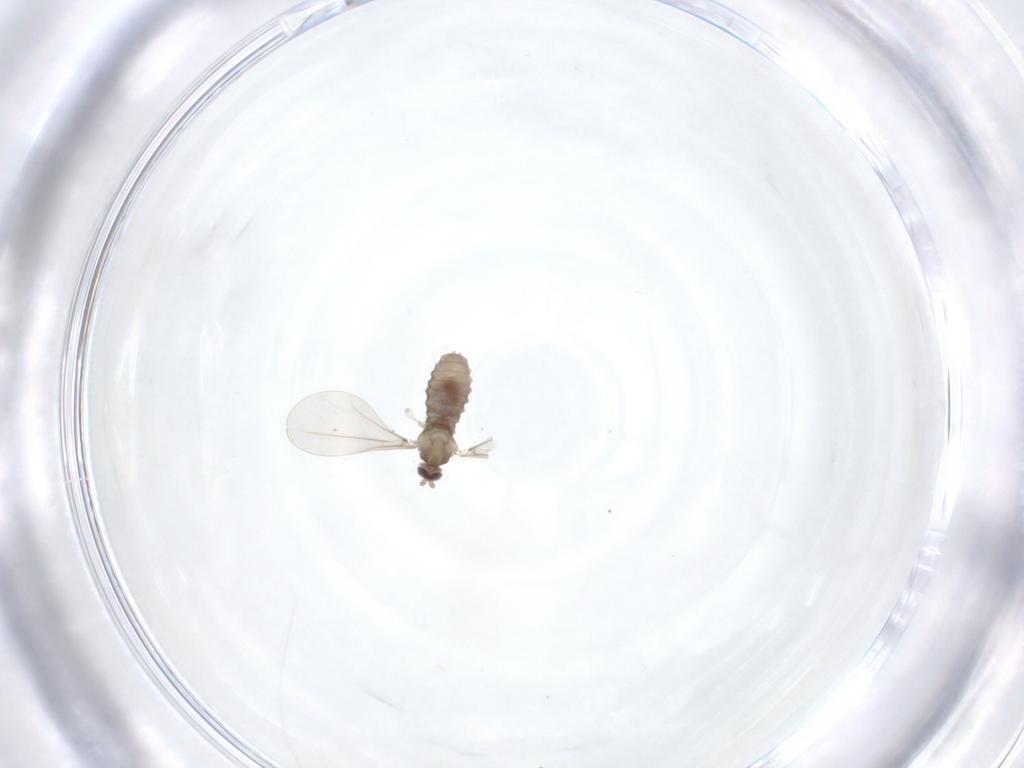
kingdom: Animalia
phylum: Arthropoda
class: Insecta
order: Diptera
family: Cecidomyiidae
